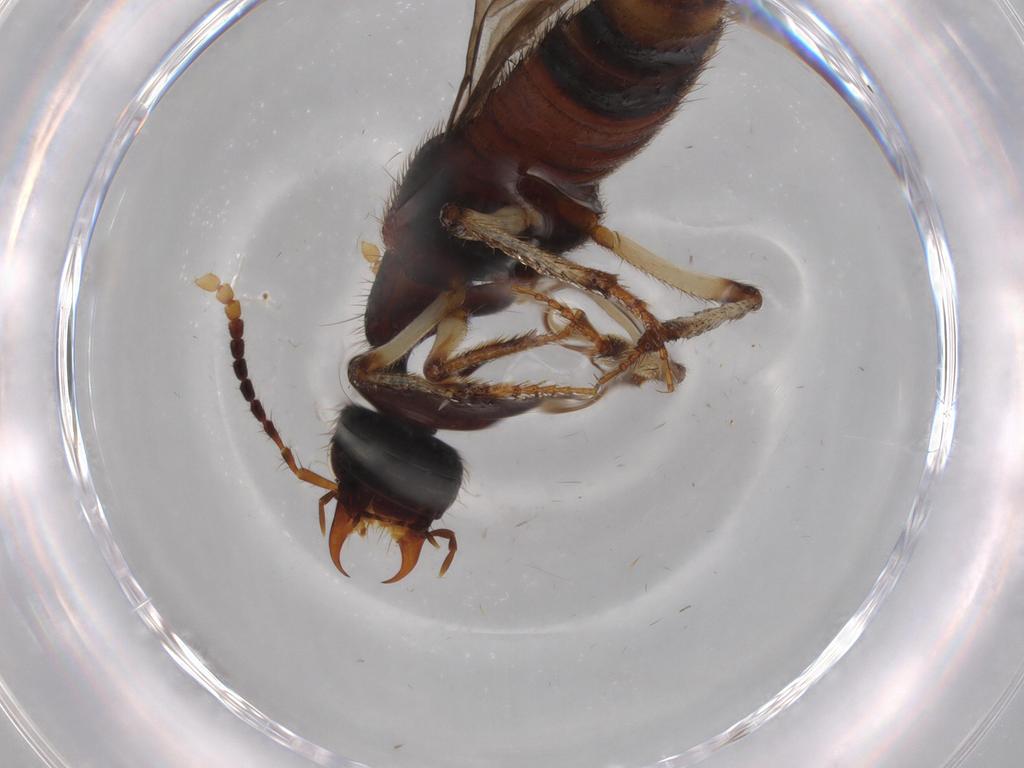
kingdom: Animalia
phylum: Arthropoda
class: Insecta
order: Coleoptera
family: Staphylinidae
